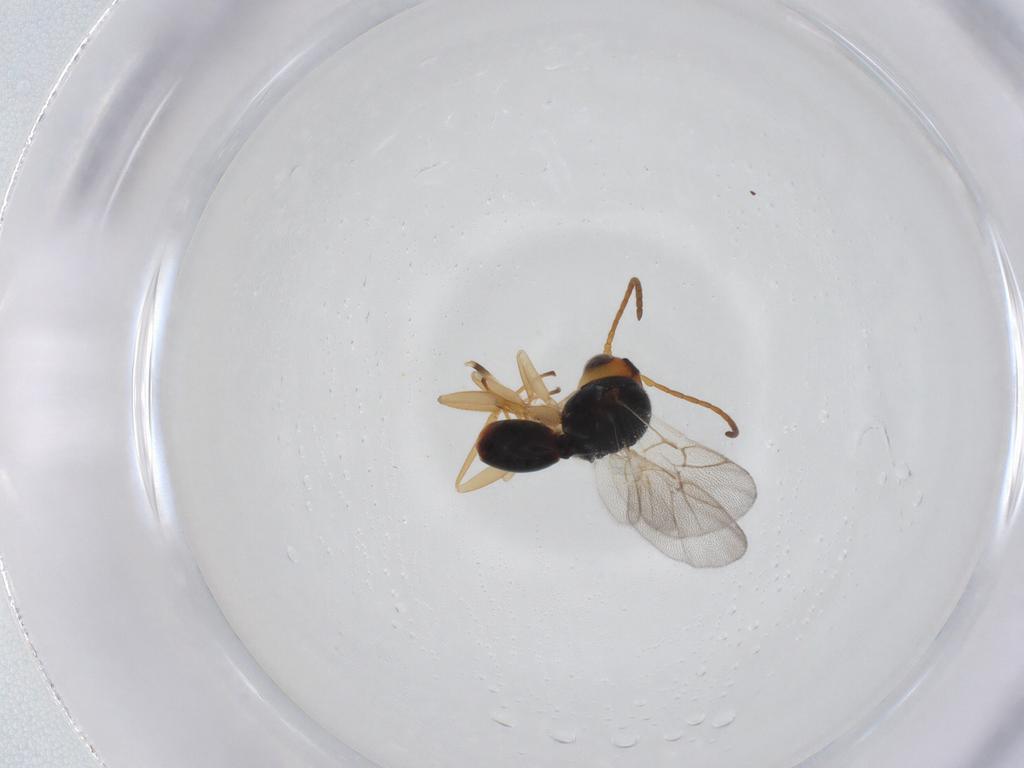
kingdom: Animalia
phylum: Arthropoda
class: Insecta
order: Hymenoptera
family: Cynipidae
